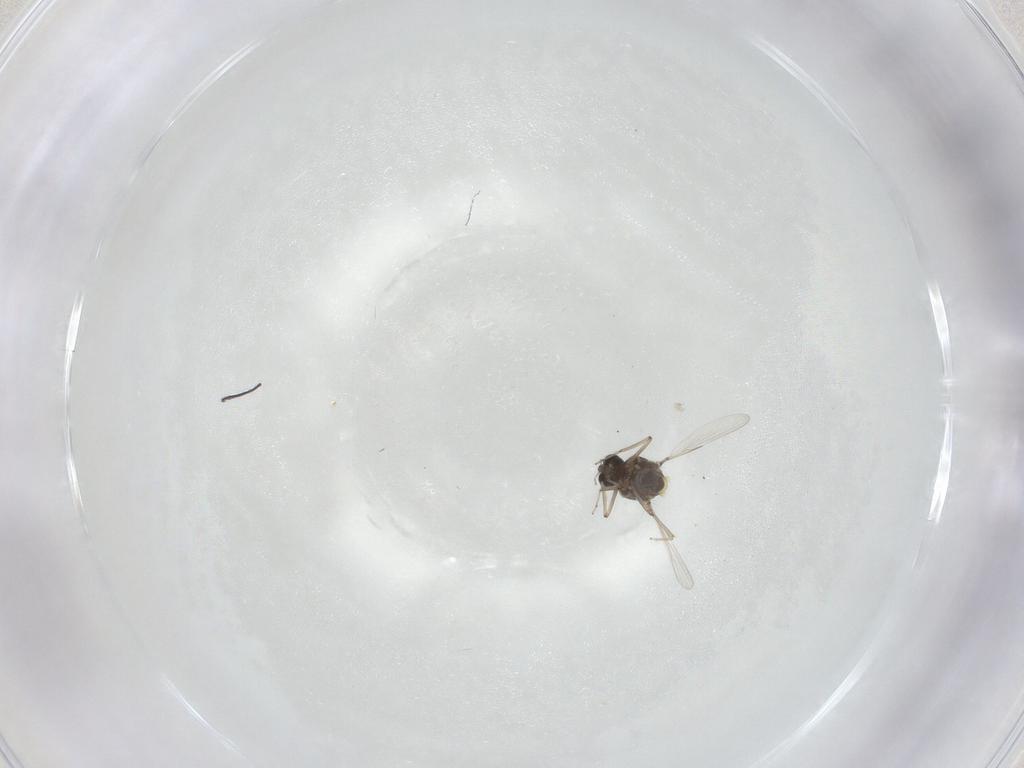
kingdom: Animalia
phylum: Arthropoda
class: Insecta
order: Diptera
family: Ceratopogonidae
